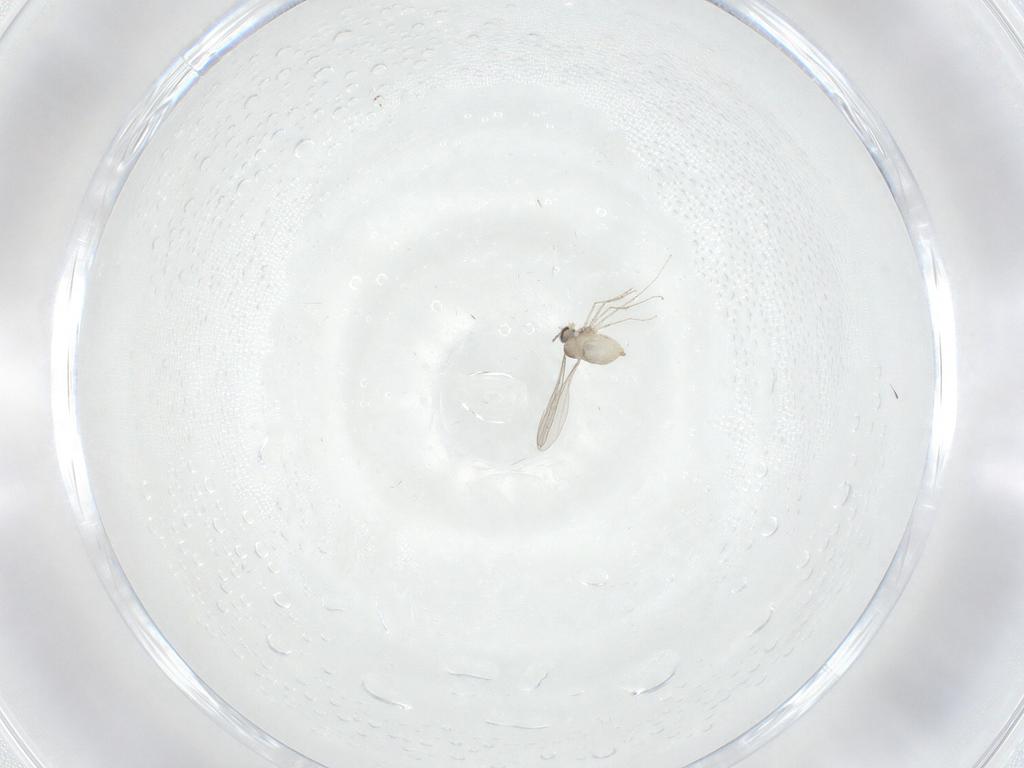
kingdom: Animalia
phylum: Arthropoda
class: Insecta
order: Diptera
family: Cecidomyiidae
